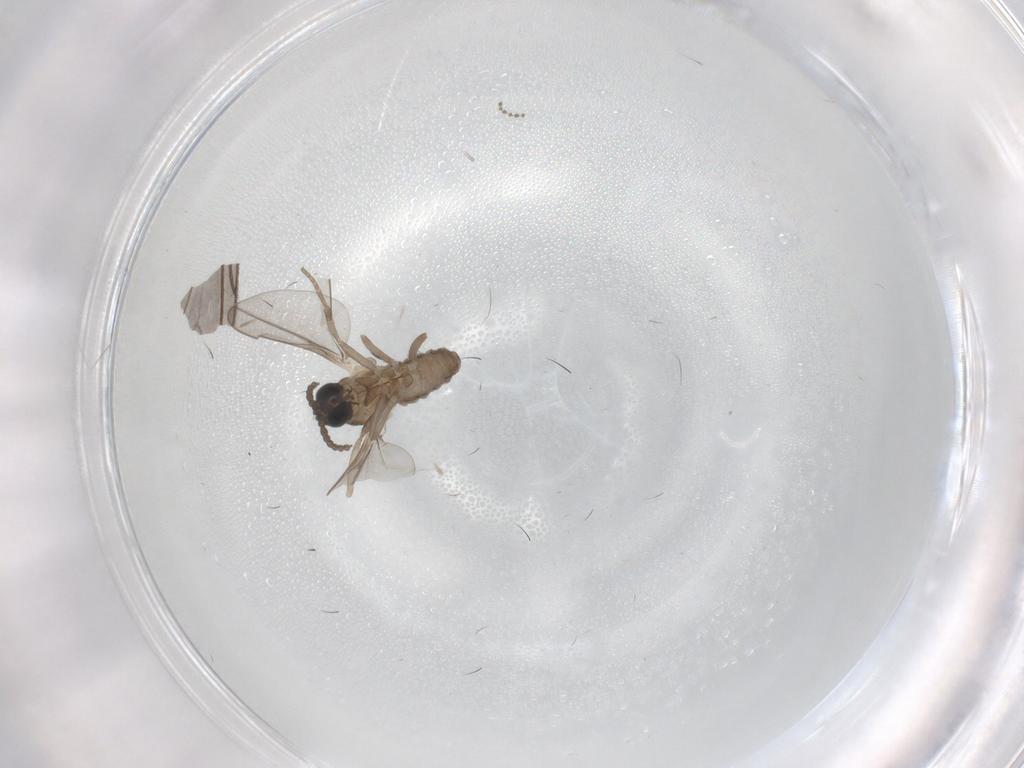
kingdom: Animalia
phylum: Arthropoda
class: Insecta
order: Diptera
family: Cecidomyiidae
